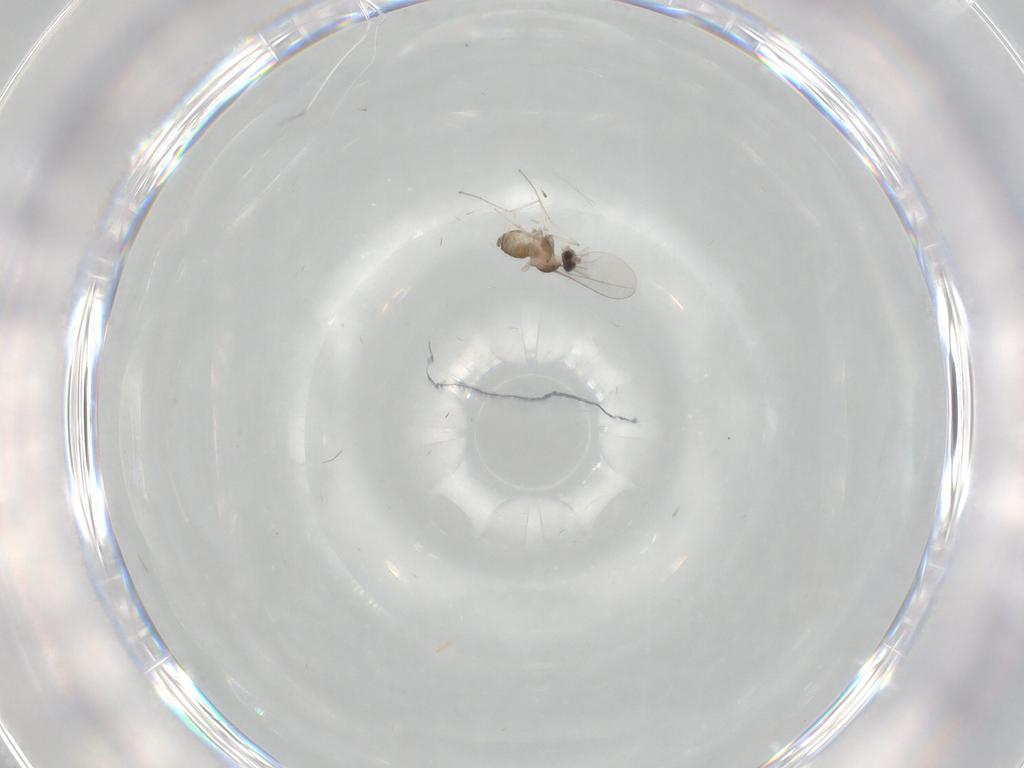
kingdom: Animalia
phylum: Arthropoda
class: Insecta
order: Diptera
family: Cecidomyiidae
